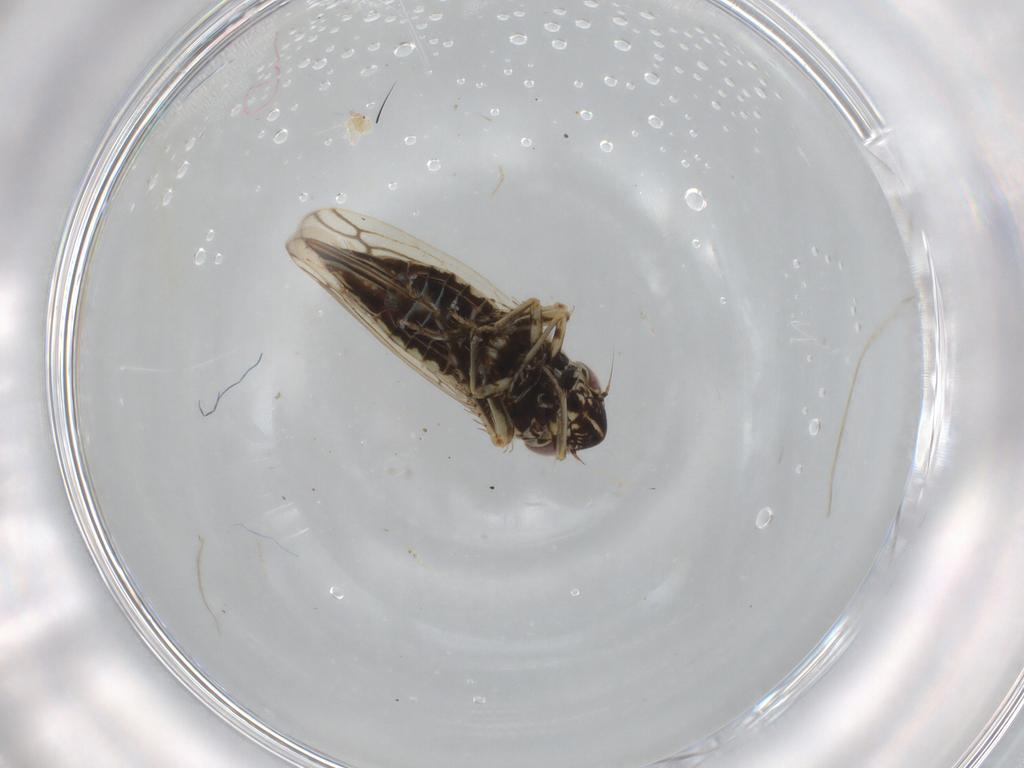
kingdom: Animalia
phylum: Arthropoda
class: Insecta
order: Hemiptera
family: Cicadellidae
